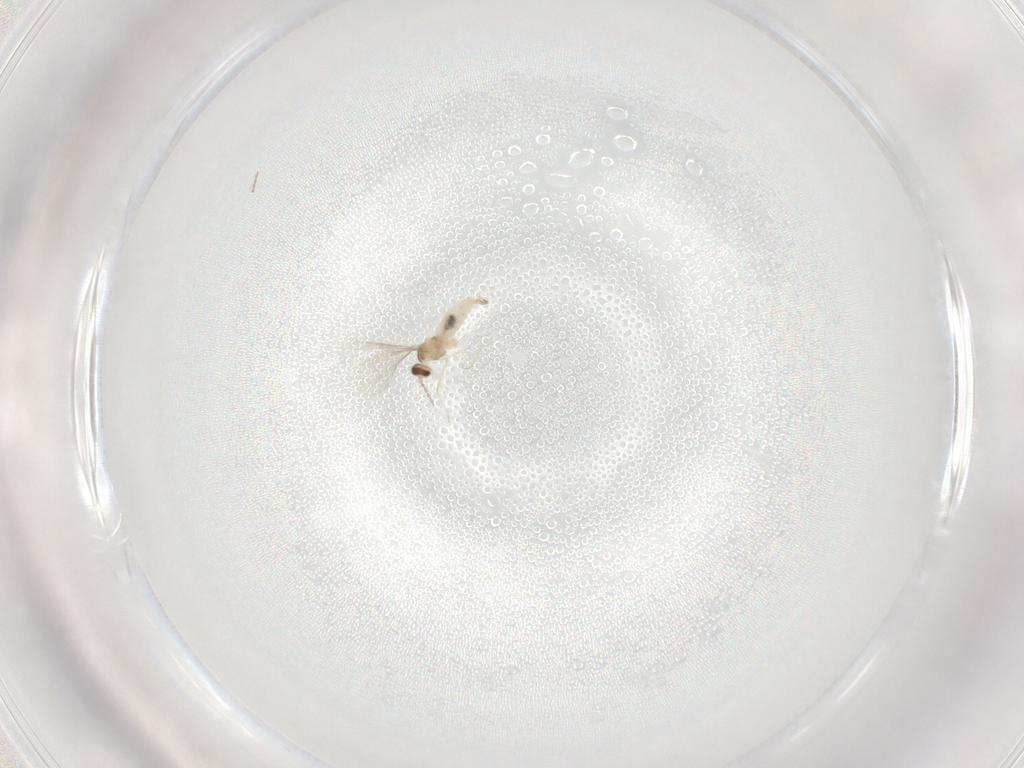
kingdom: Animalia
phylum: Arthropoda
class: Insecta
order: Diptera
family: Cecidomyiidae
